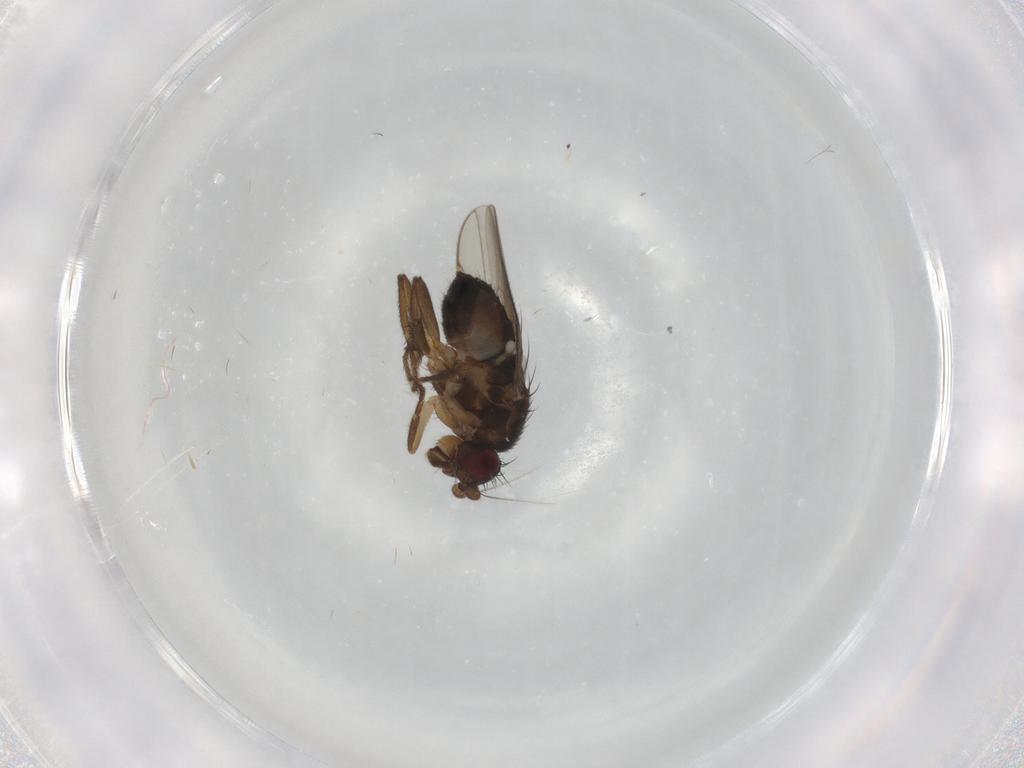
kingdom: Animalia
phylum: Arthropoda
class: Insecta
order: Diptera
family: Sphaeroceridae
